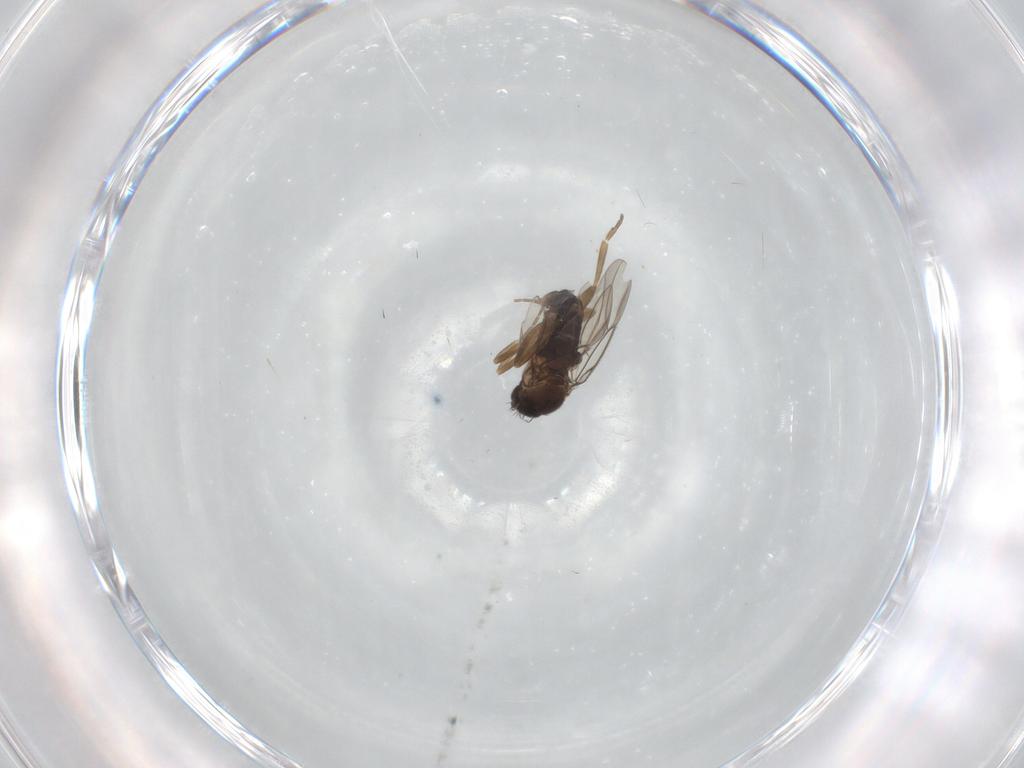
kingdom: Animalia
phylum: Arthropoda
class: Insecta
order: Diptera
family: Phoridae
